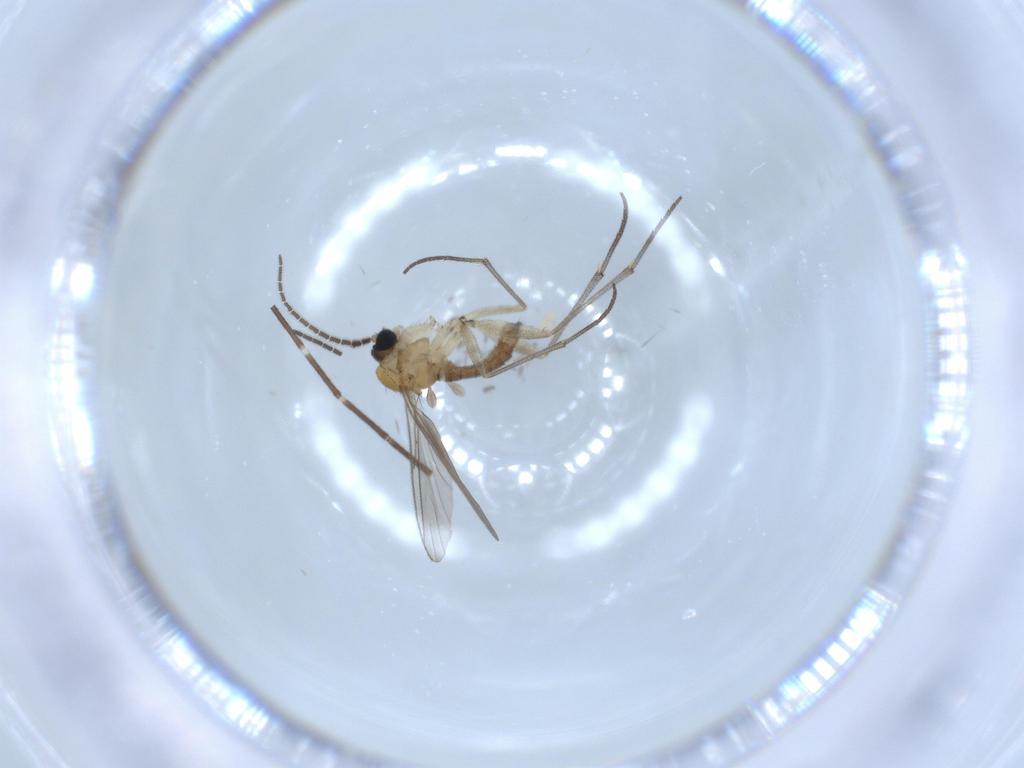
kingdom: Animalia
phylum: Arthropoda
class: Insecta
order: Diptera
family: Sciaridae
